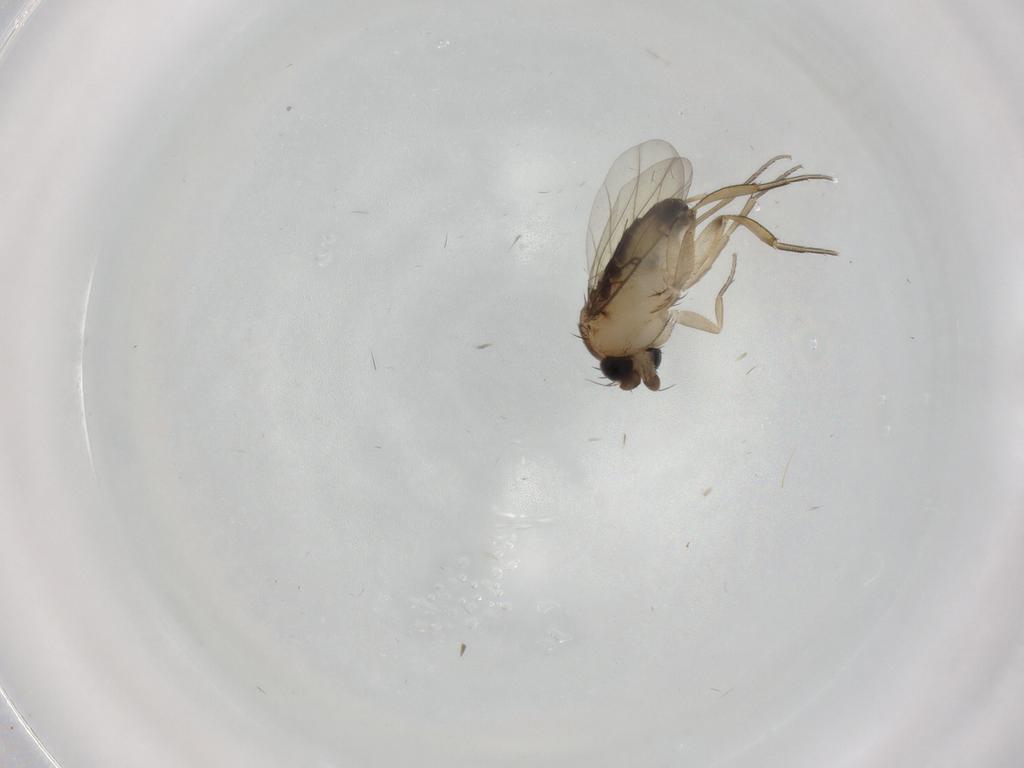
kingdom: Animalia
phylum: Arthropoda
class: Insecta
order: Diptera
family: Phoridae
